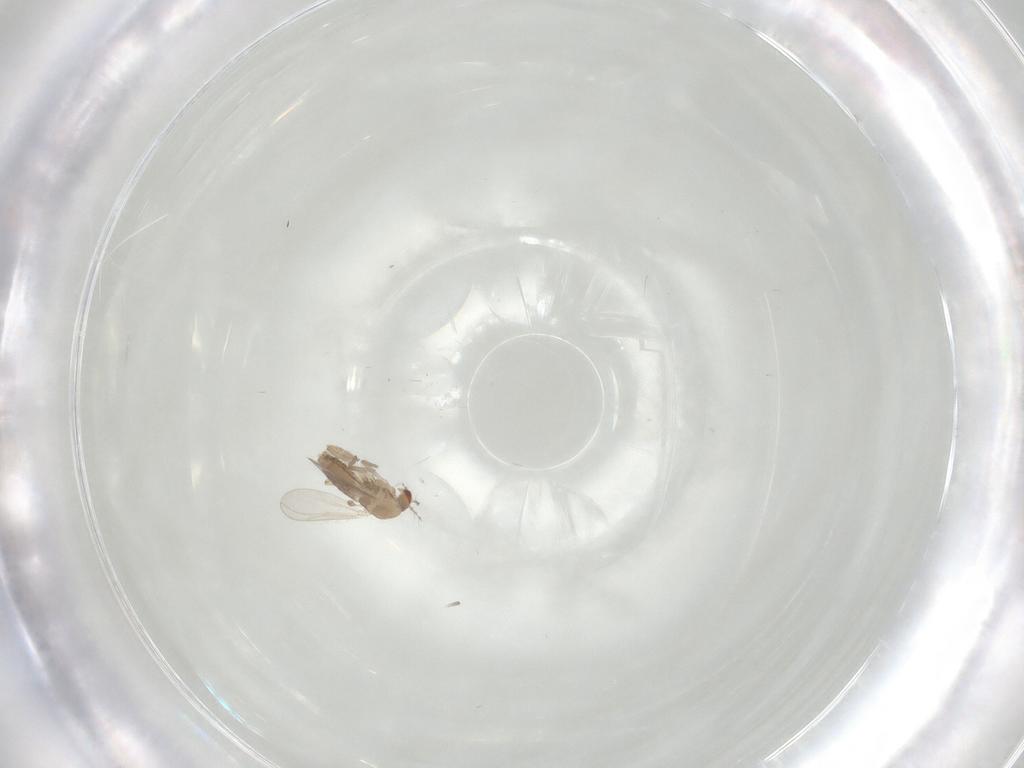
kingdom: Animalia
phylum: Arthropoda
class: Insecta
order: Diptera
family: Chironomidae
